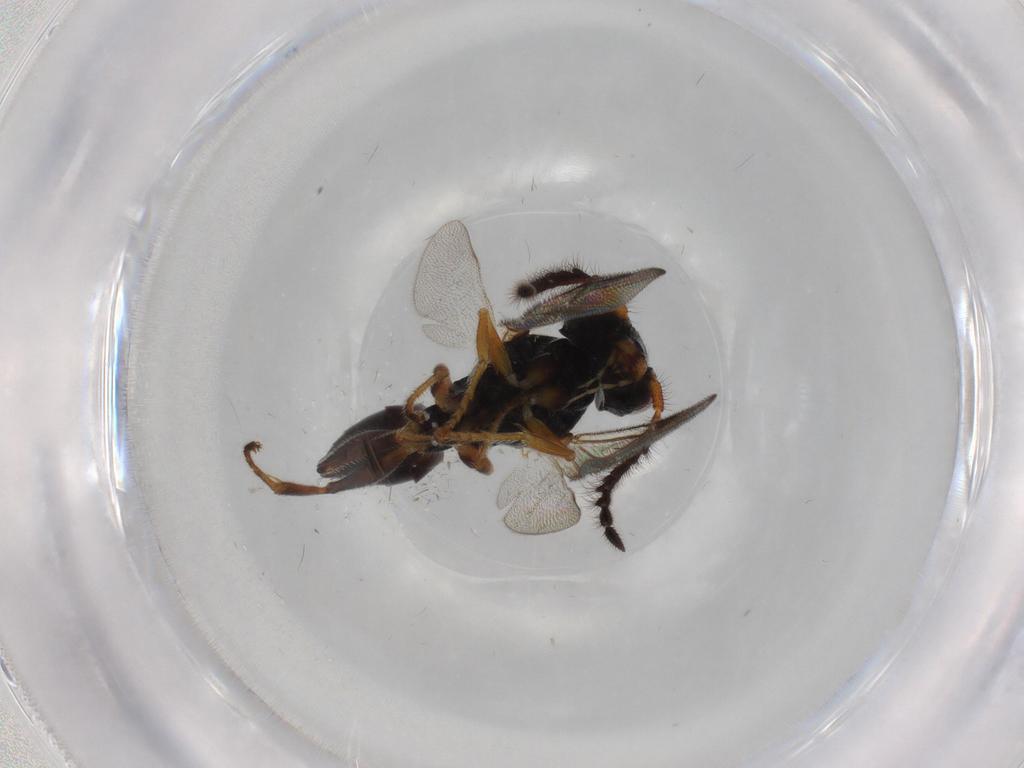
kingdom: Animalia
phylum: Arthropoda
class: Insecta
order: Hymenoptera
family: Dryinidae
